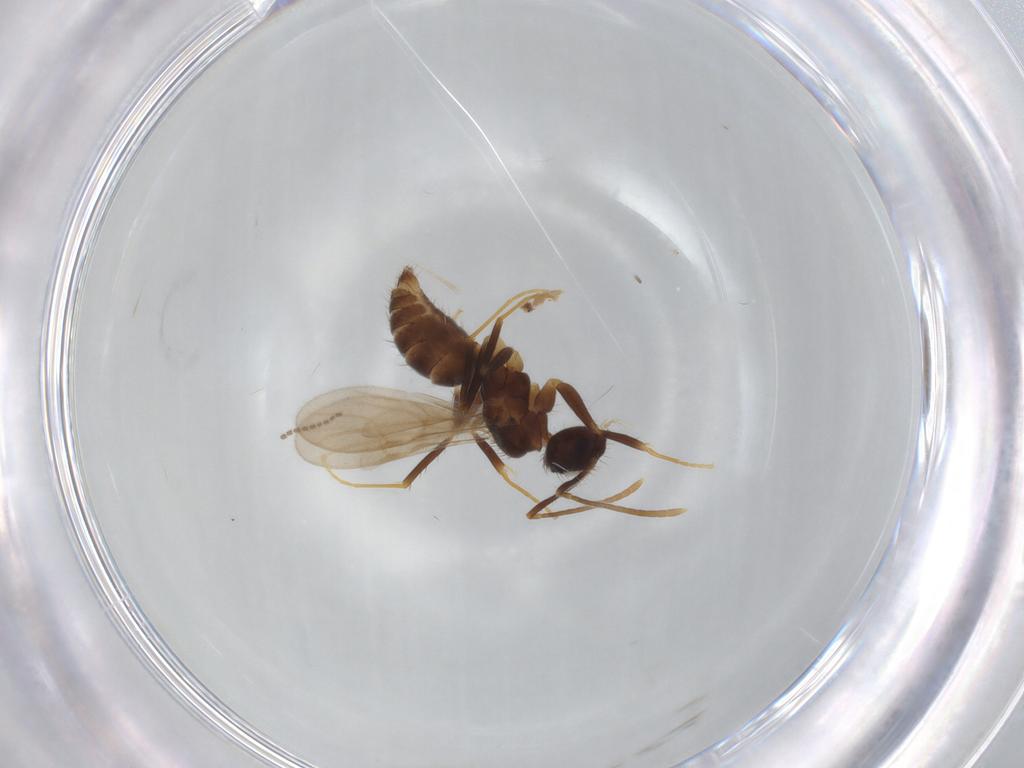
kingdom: Animalia
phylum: Arthropoda
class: Insecta
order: Hymenoptera
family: Formicidae
